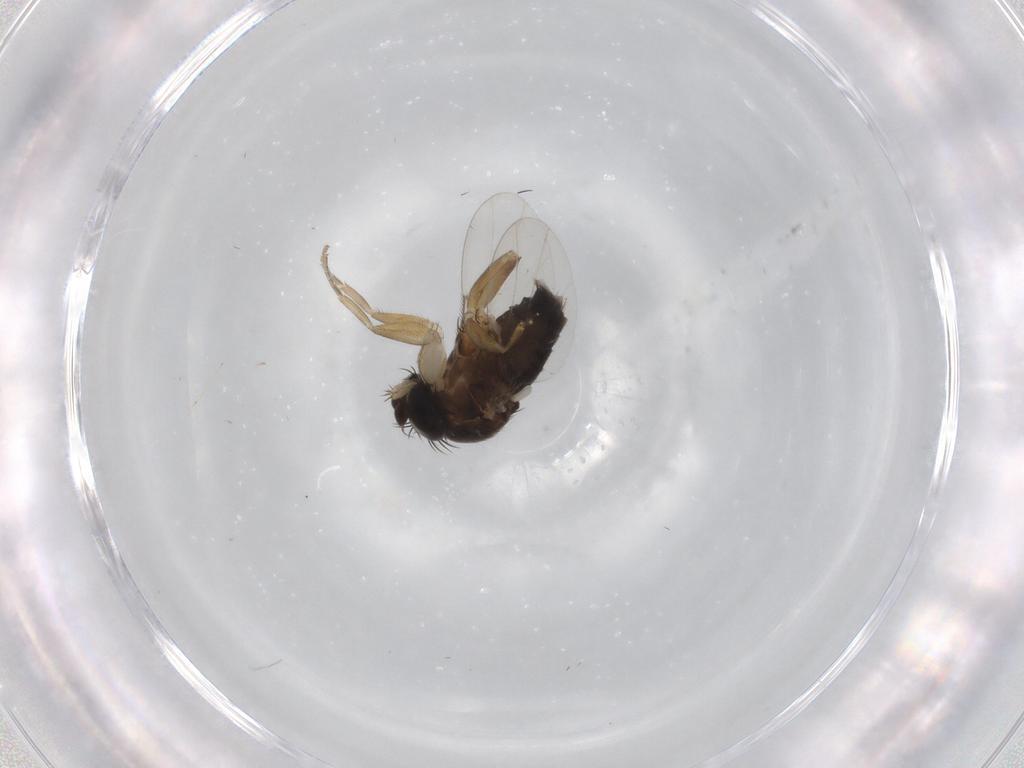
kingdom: Animalia
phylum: Arthropoda
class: Insecta
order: Diptera
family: Phoridae
